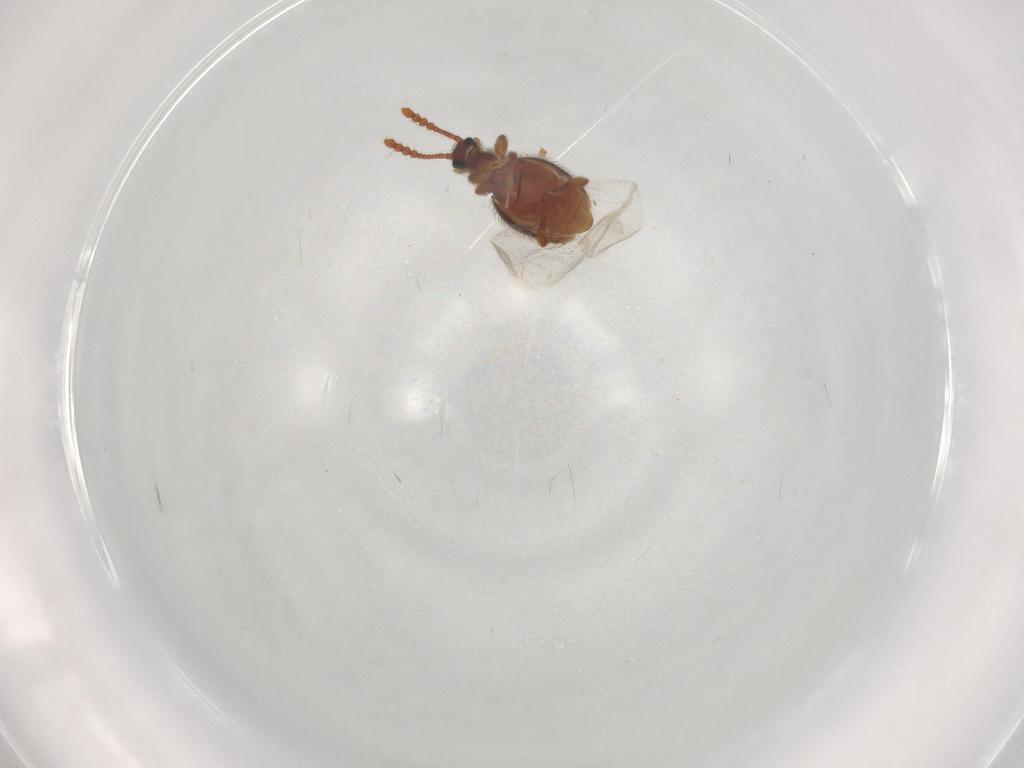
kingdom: Animalia
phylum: Arthropoda
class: Insecta
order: Coleoptera
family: Staphylinidae
